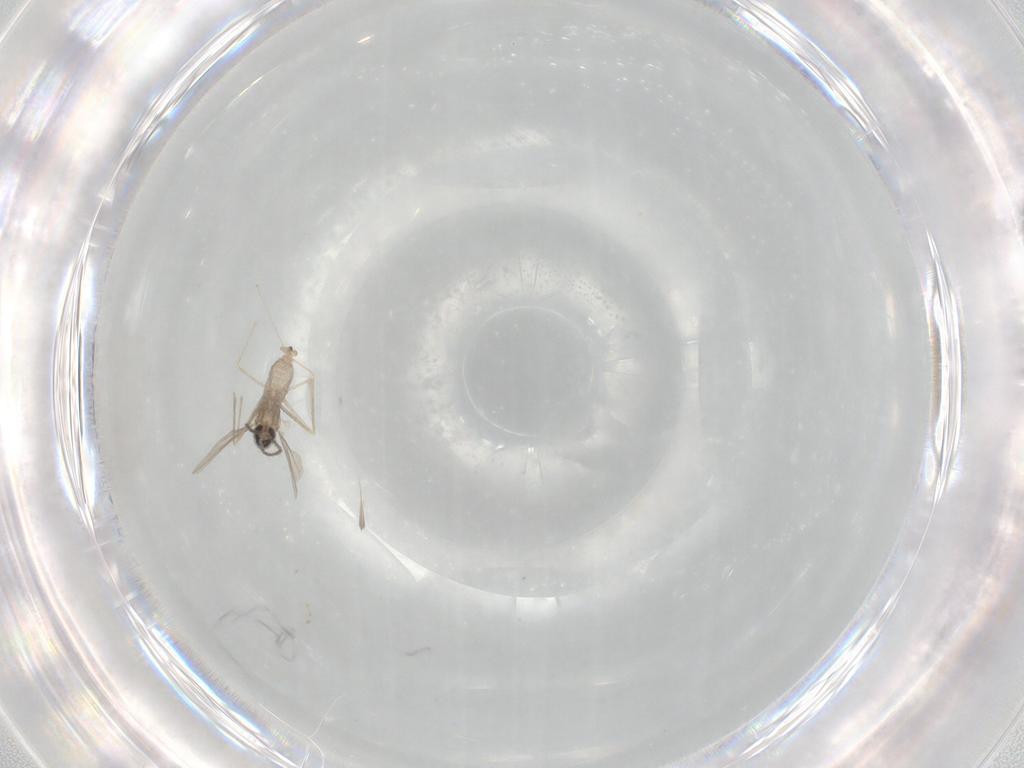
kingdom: Animalia
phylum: Arthropoda
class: Insecta
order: Diptera
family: Cecidomyiidae
